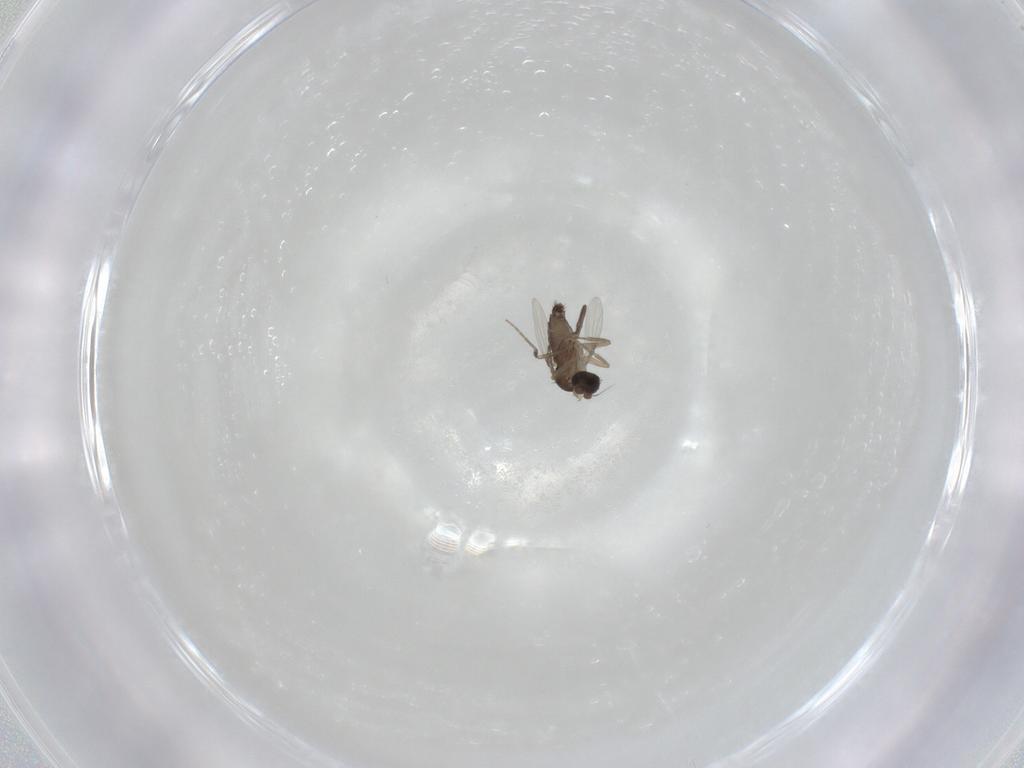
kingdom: Animalia
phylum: Arthropoda
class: Insecta
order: Diptera
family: Phoridae
